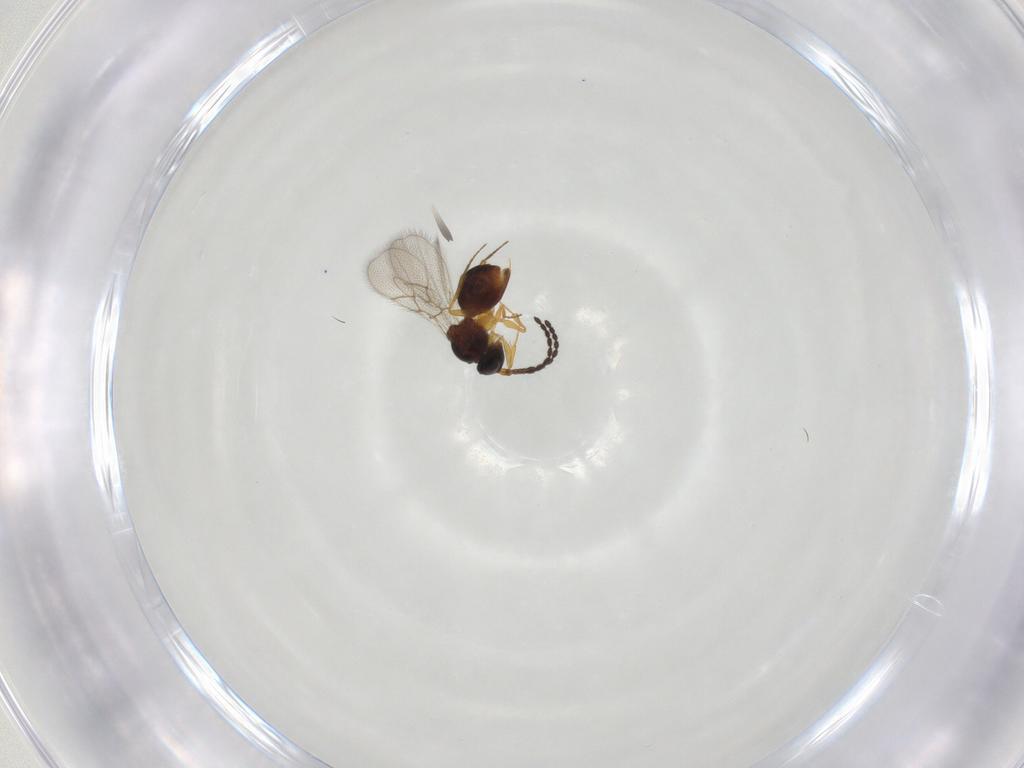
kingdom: Animalia
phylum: Arthropoda
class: Insecta
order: Hymenoptera
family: Figitidae
